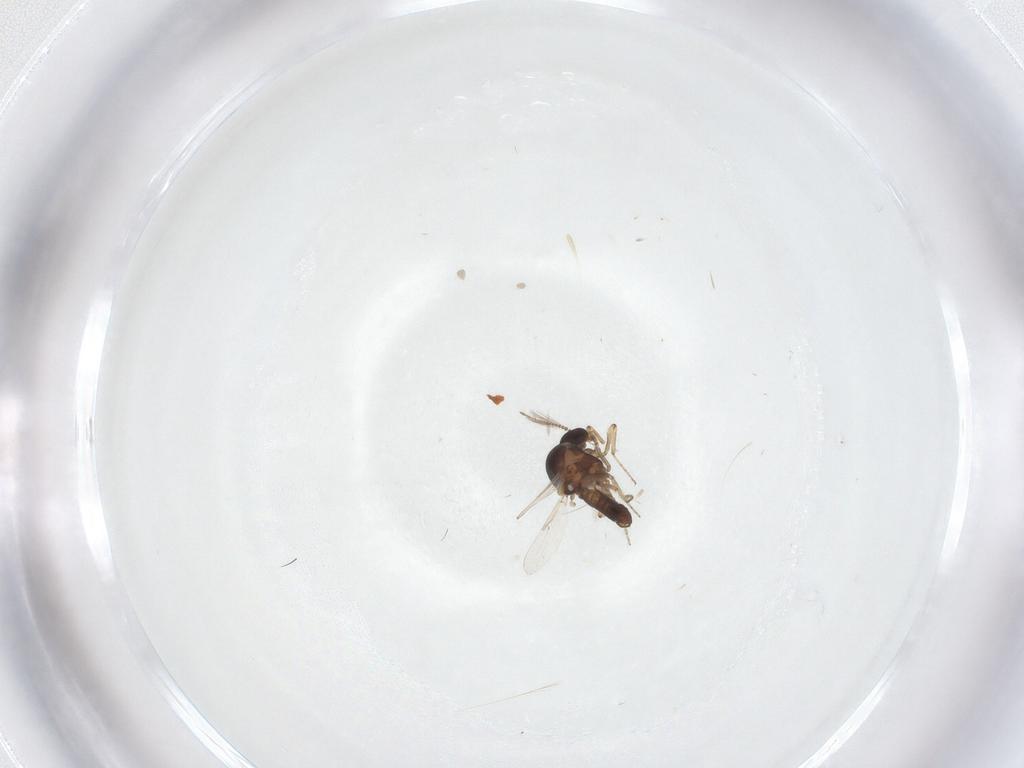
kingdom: Animalia
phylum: Arthropoda
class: Insecta
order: Diptera
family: Ceratopogonidae
